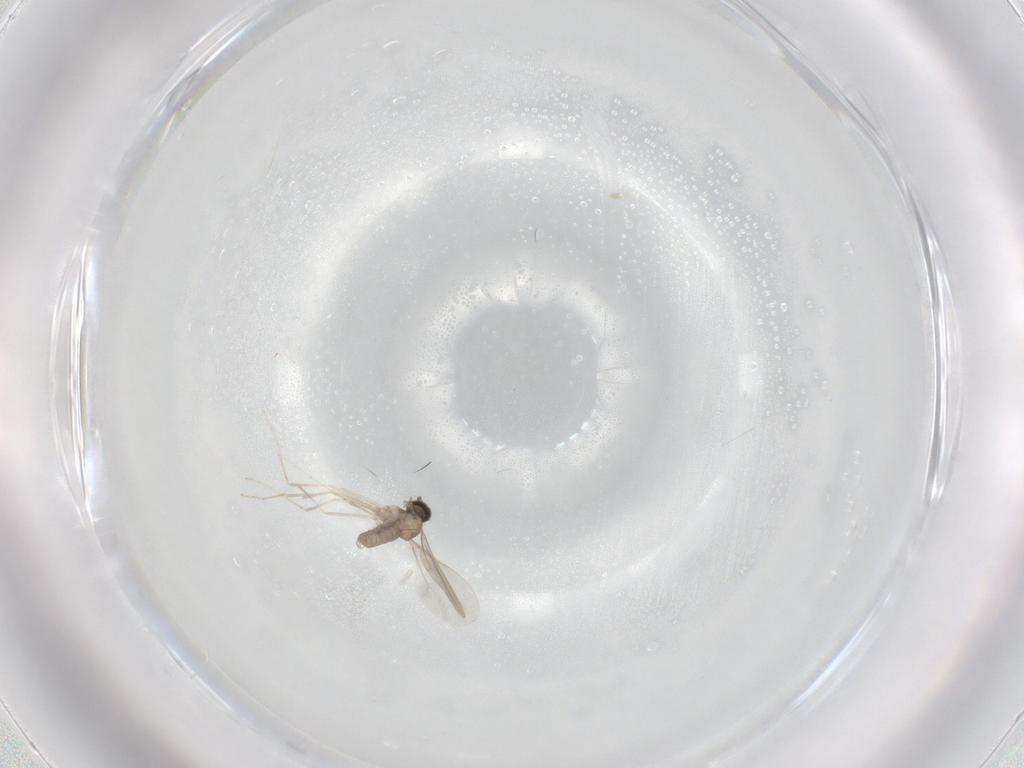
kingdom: Animalia
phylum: Arthropoda
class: Insecta
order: Diptera
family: Cecidomyiidae
